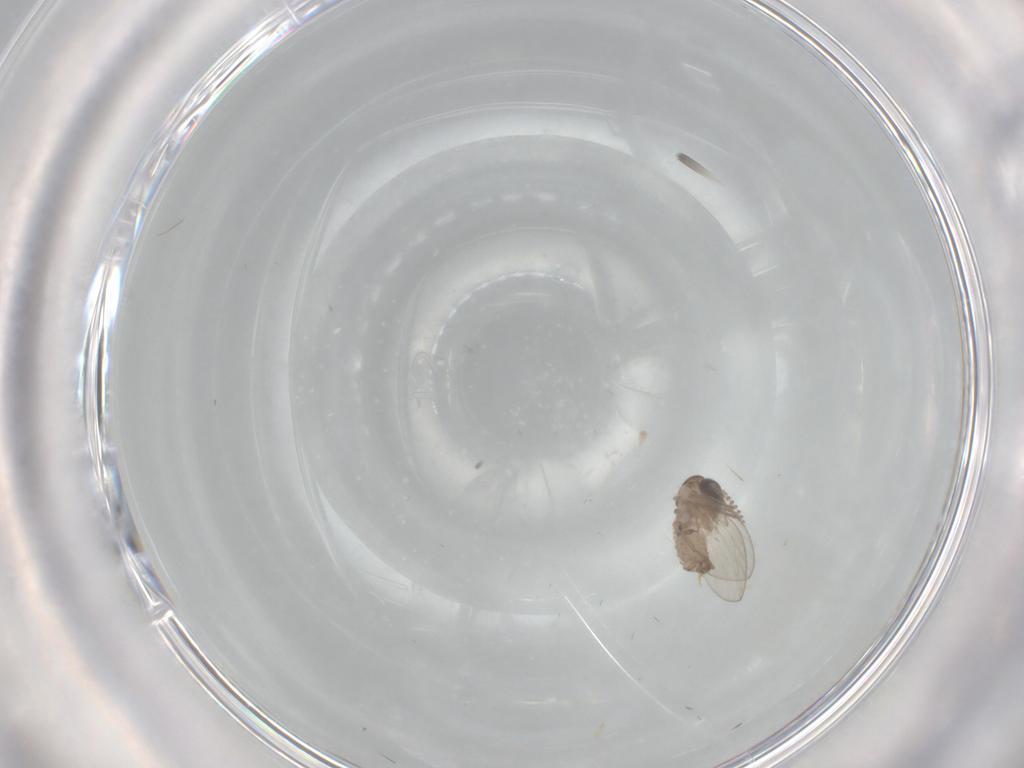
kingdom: Animalia
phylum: Arthropoda
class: Insecta
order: Diptera
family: Psychodidae
